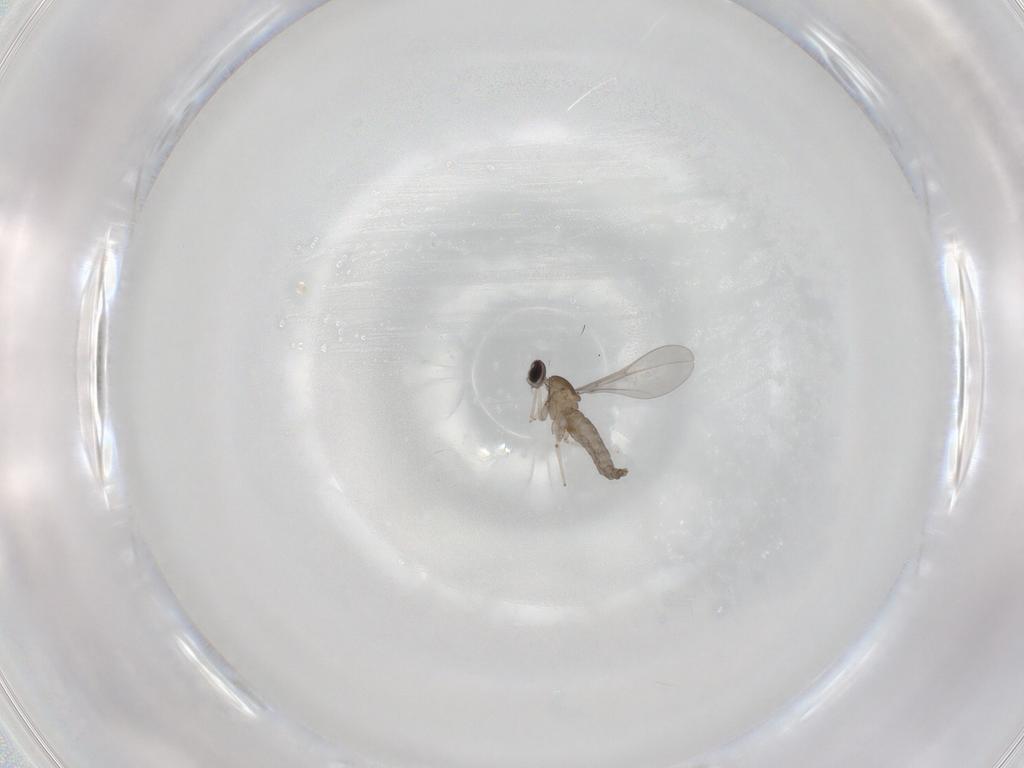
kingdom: Animalia
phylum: Arthropoda
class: Insecta
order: Diptera
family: Cecidomyiidae
